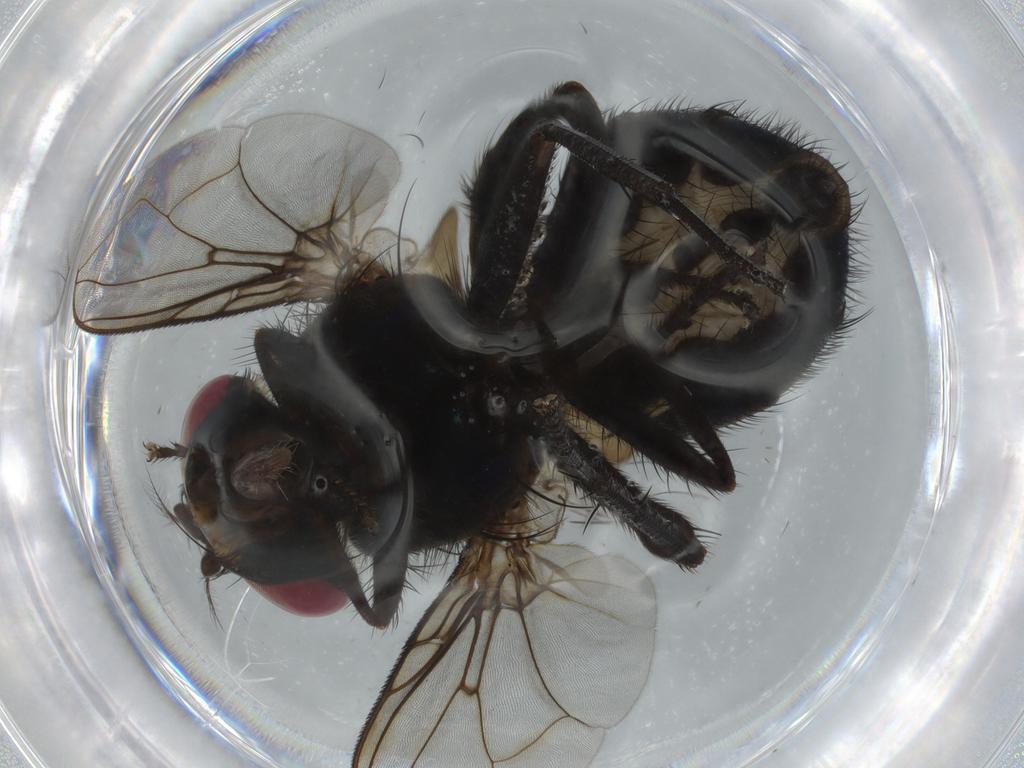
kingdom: Animalia
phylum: Arthropoda
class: Insecta
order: Diptera
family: Calliphoridae
